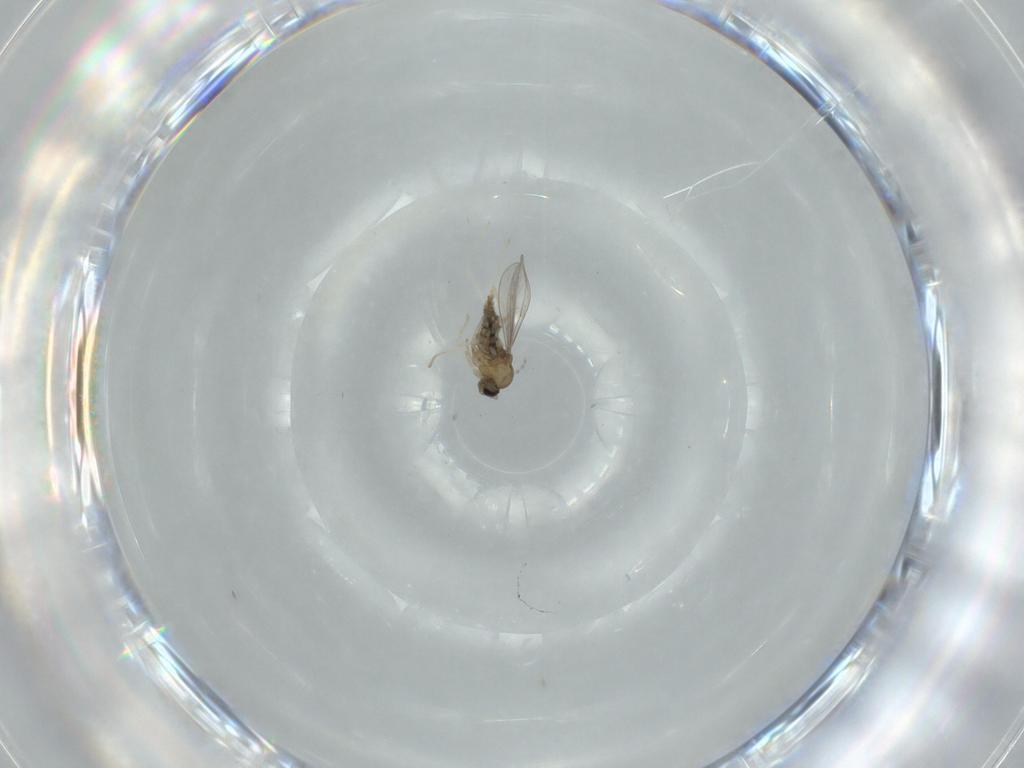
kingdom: Animalia
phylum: Arthropoda
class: Insecta
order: Diptera
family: Cecidomyiidae
